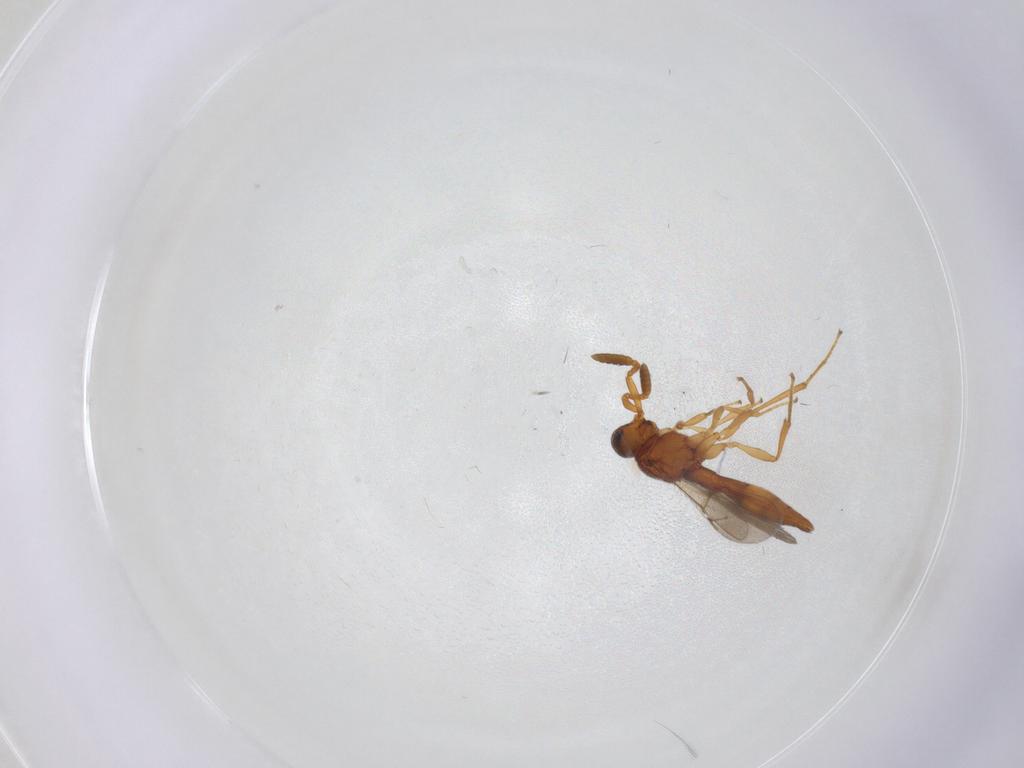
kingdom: Animalia
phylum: Arthropoda
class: Insecta
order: Hymenoptera
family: Scelionidae
